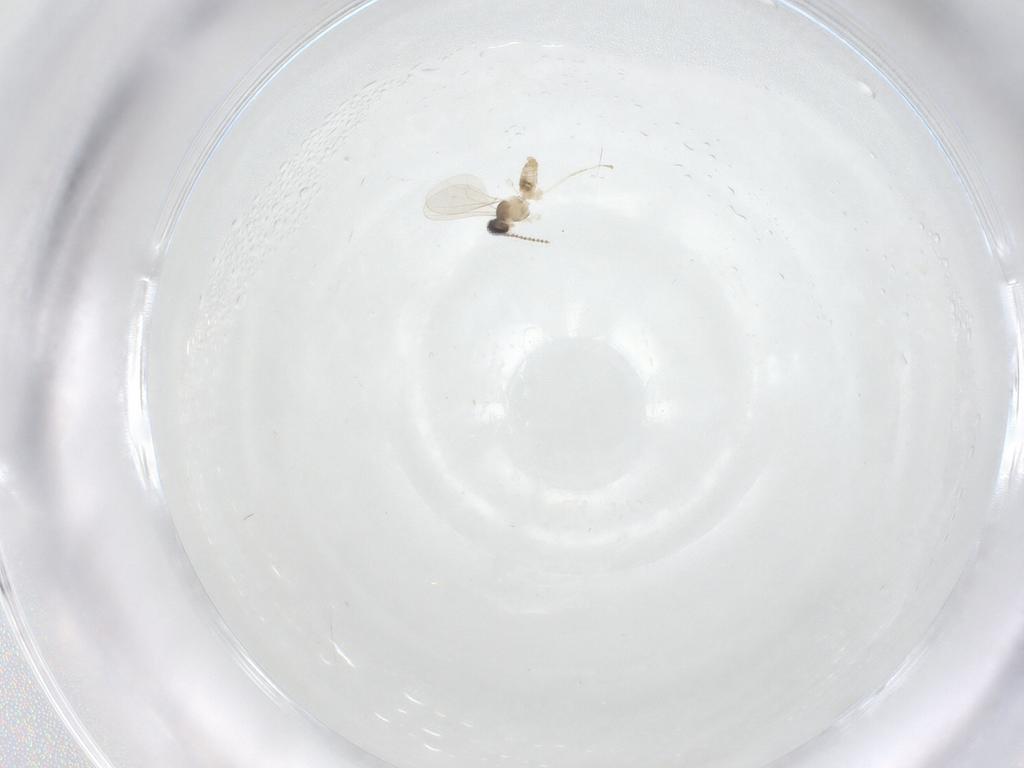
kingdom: Animalia
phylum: Arthropoda
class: Insecta
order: Diptera
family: Cecidomyiidae
